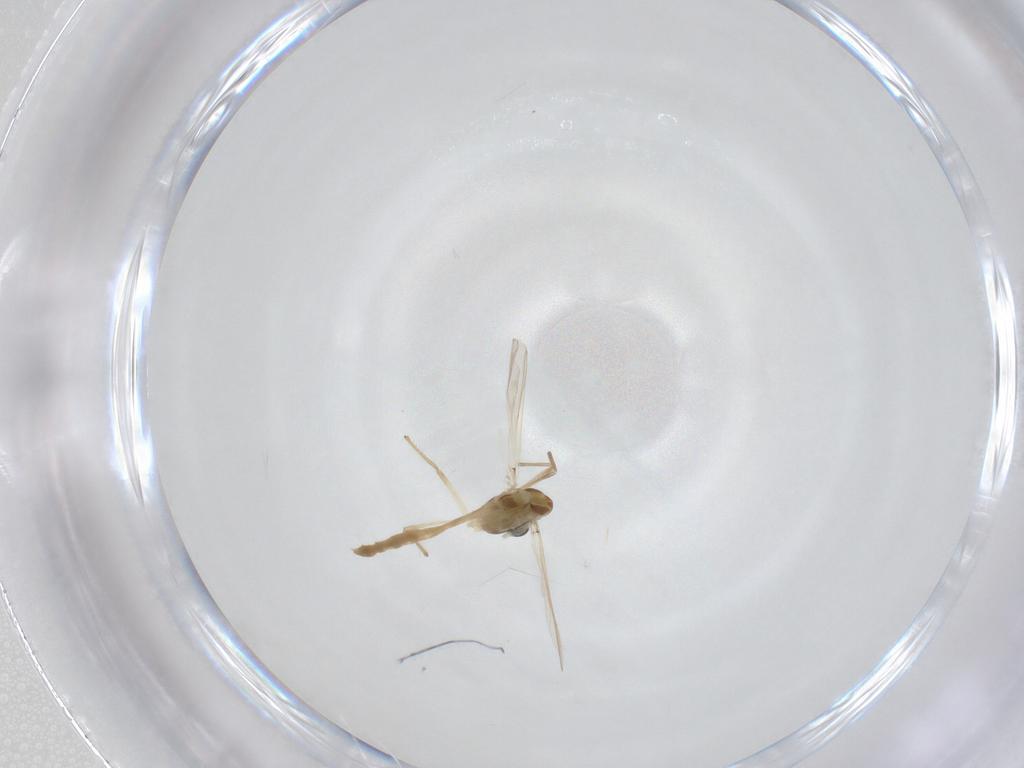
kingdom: Animalia
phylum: Arthropoda
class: Insecta
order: Diptera
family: Chironomidae
